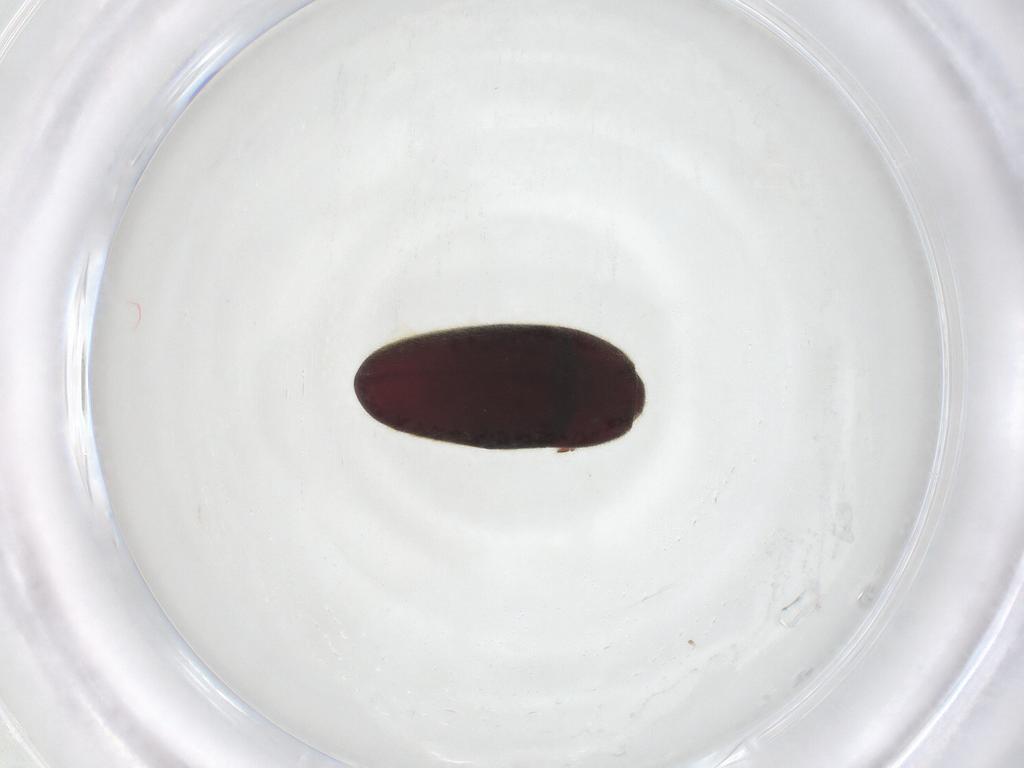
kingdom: Animalia
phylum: Arthropoda
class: Insecta
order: Coleoptera
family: Throscidae
